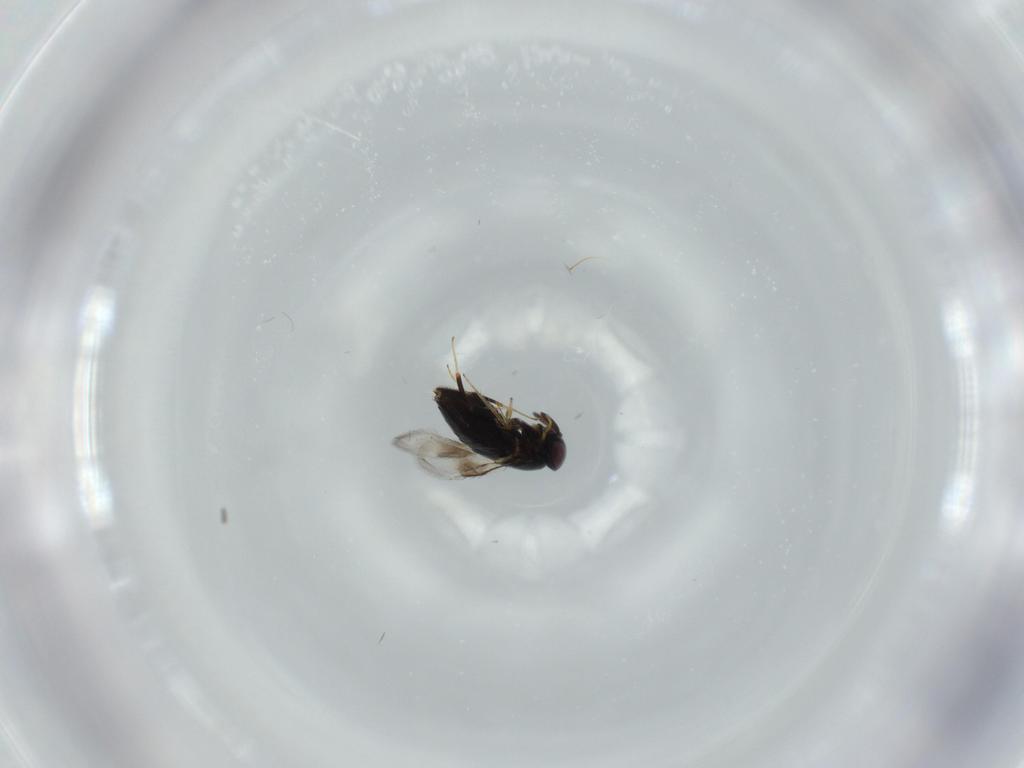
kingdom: Animalia
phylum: Arthropoda
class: Insecta
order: Hymenoptera
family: Signiphoridae
